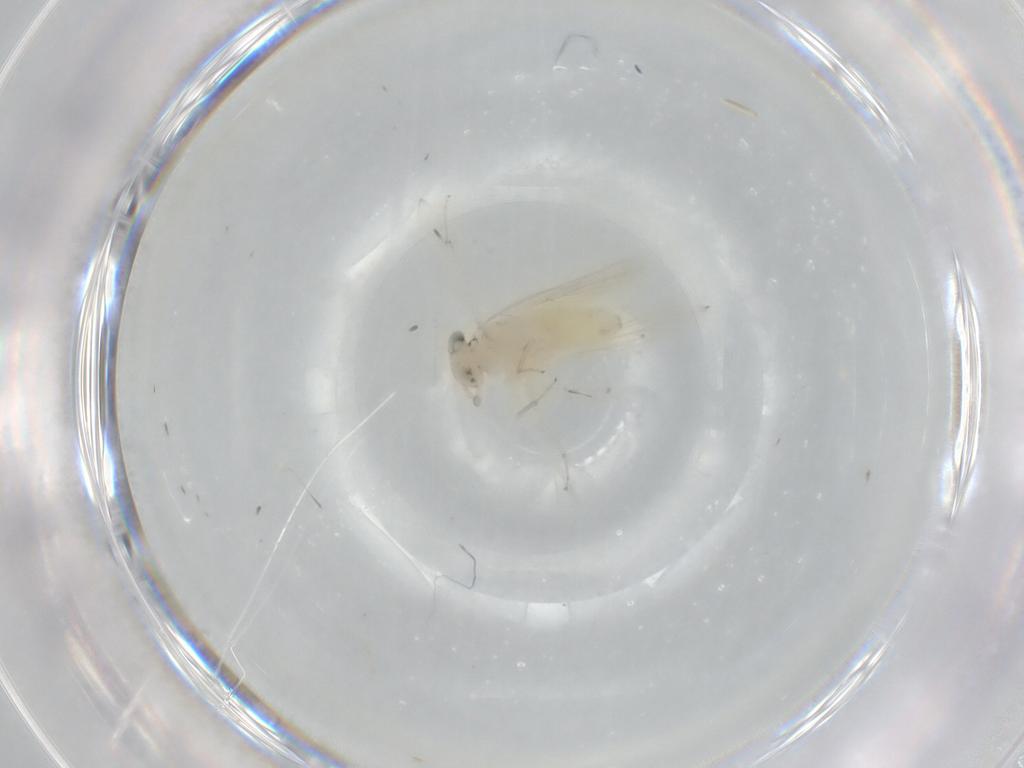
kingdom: Animalia
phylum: Arthropoda
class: Insecta
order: Psocodea
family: Lepidopsocidae
